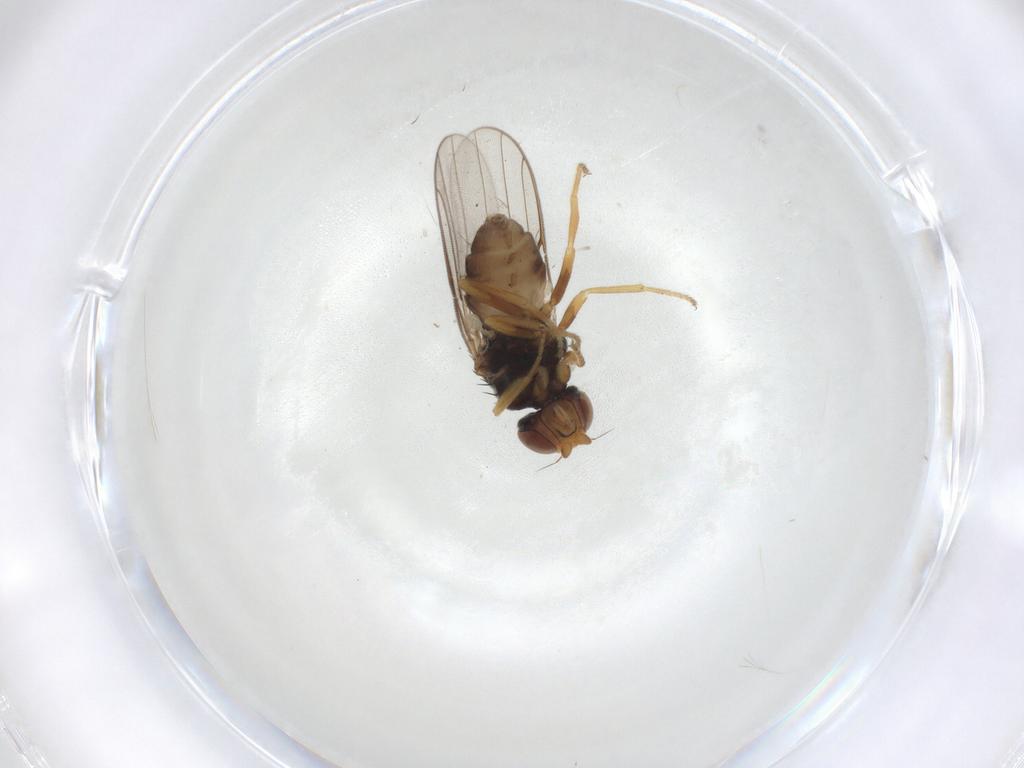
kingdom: Animalia
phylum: Arthropoda
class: Insecta
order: Diptera
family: Chloropidae
